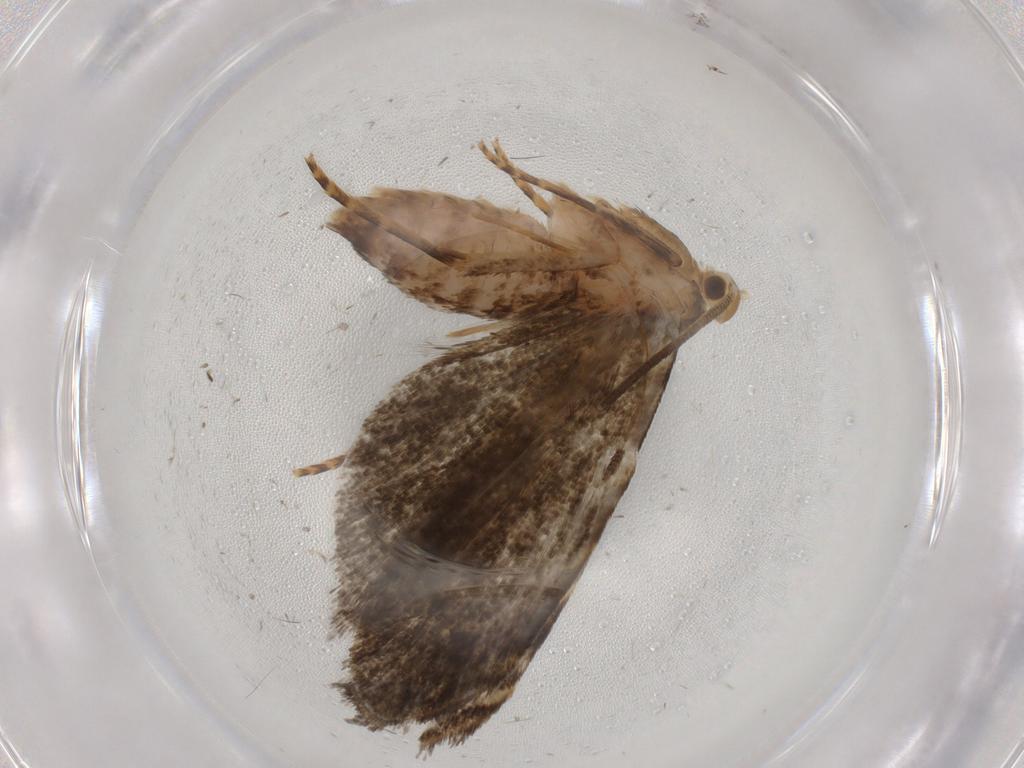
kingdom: Animalia
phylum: Arthropoda
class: Insecta
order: Lepidoptera
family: Dryadaulidae
